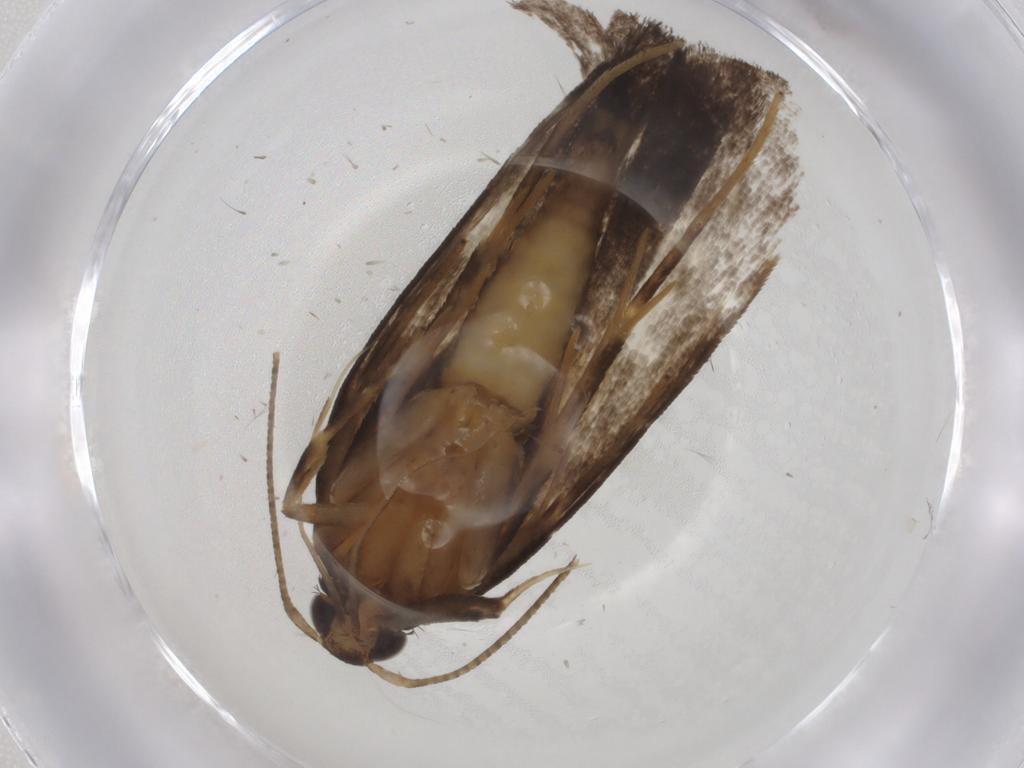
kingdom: Animalia
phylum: Arthropoda
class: Insecta
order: Lepidoptera
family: Gelechiidae
